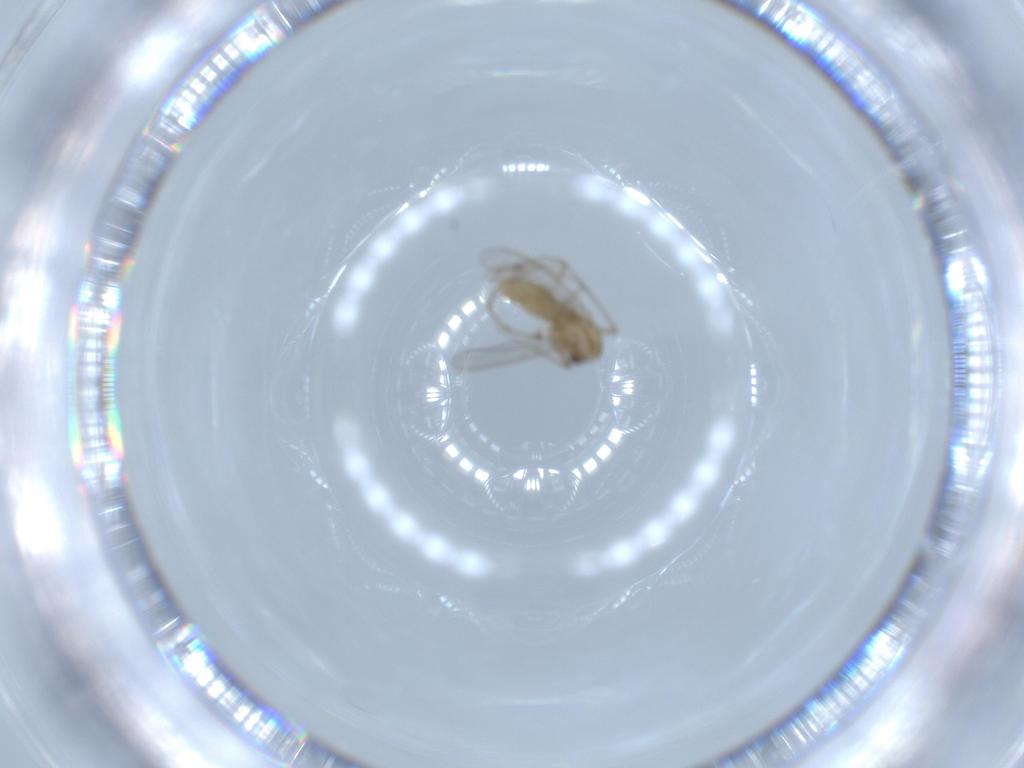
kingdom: Animalia
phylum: Arthropoda
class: Insecta
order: Diptera
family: Chironomidae
